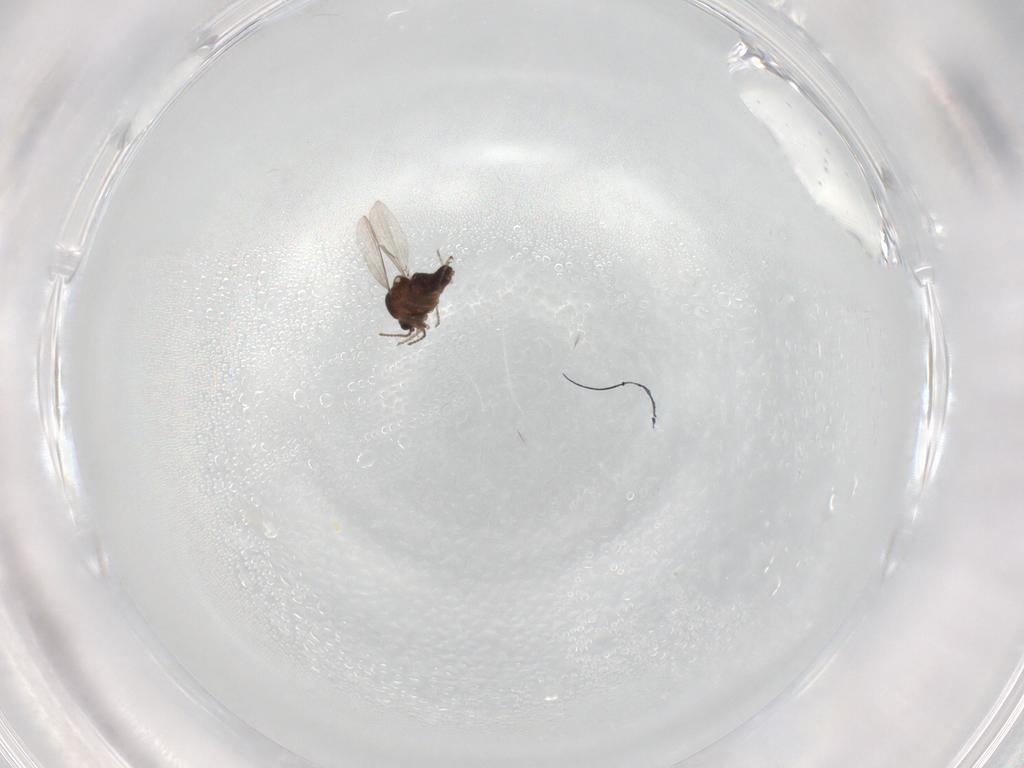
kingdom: Animalia
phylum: Arthropoda
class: Insecta
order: Diptera
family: Ceratopogonidae
